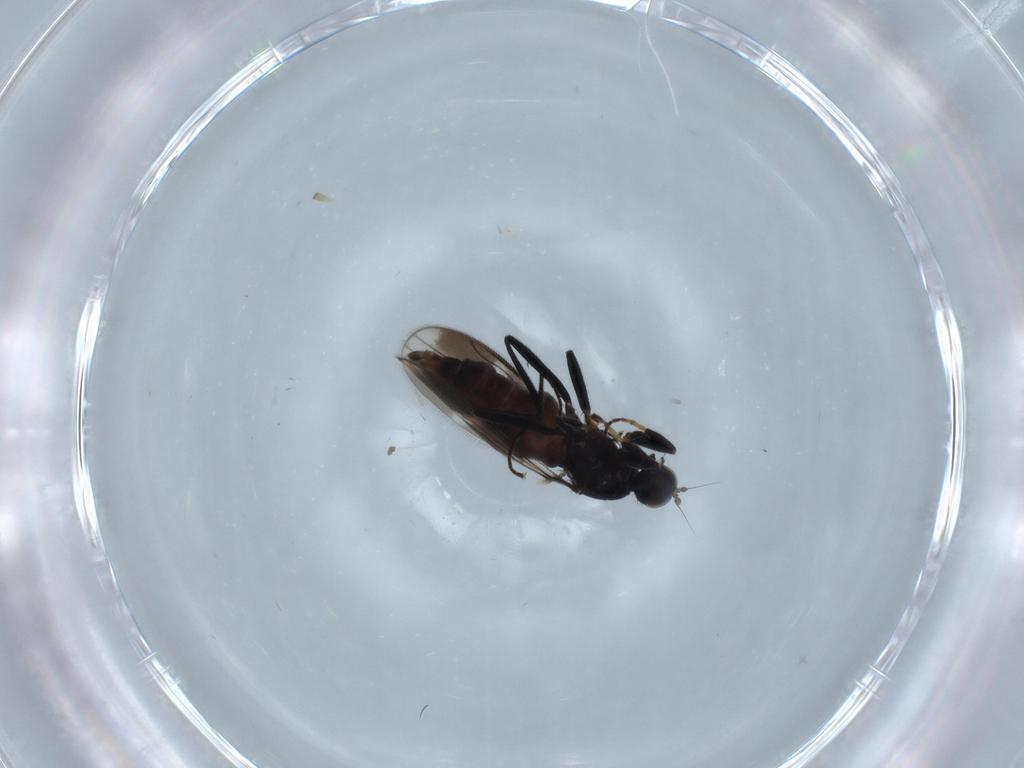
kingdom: Animalia
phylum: Arthropoda
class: Insecta
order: Diptera
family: Hybotidae
